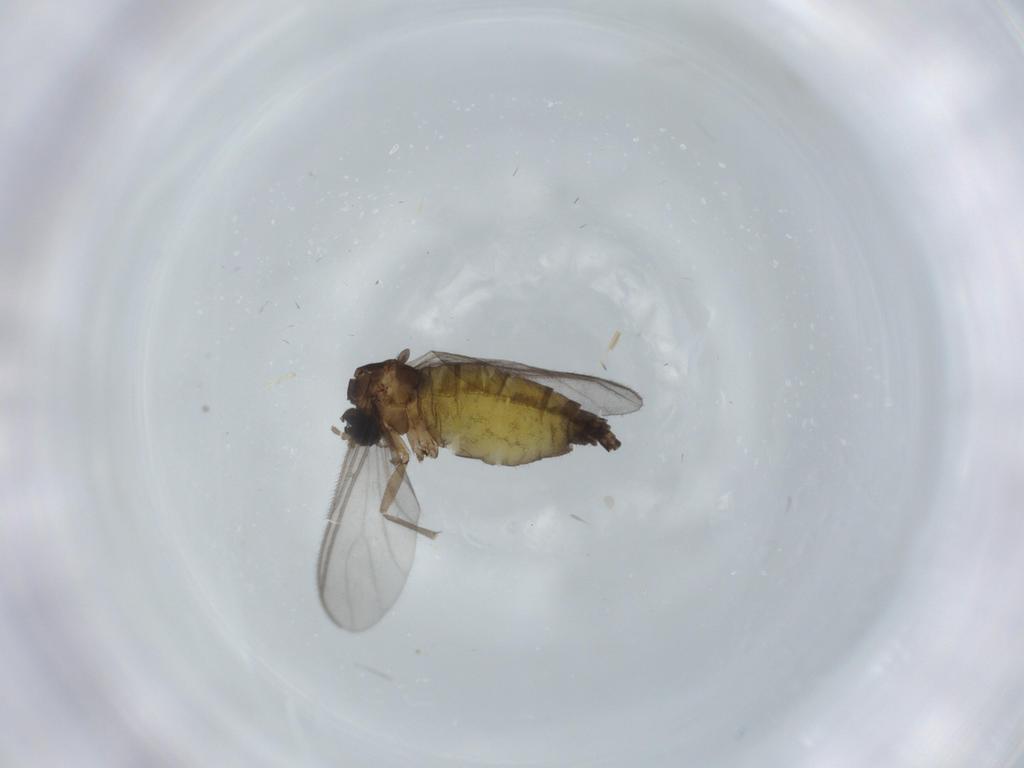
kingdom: Animalia
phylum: Arthropoda
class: Insecta
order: Diptera
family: Sciaridae
